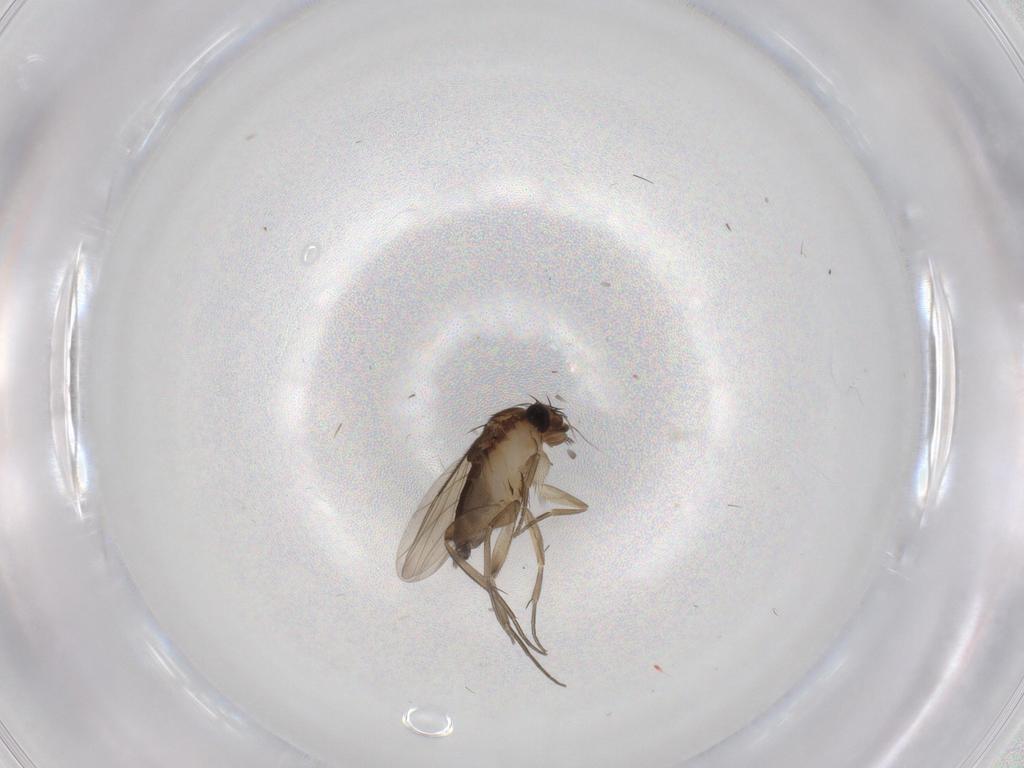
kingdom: Animalia
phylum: Arthropoda
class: Insecta
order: Diptera
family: Phoridae
